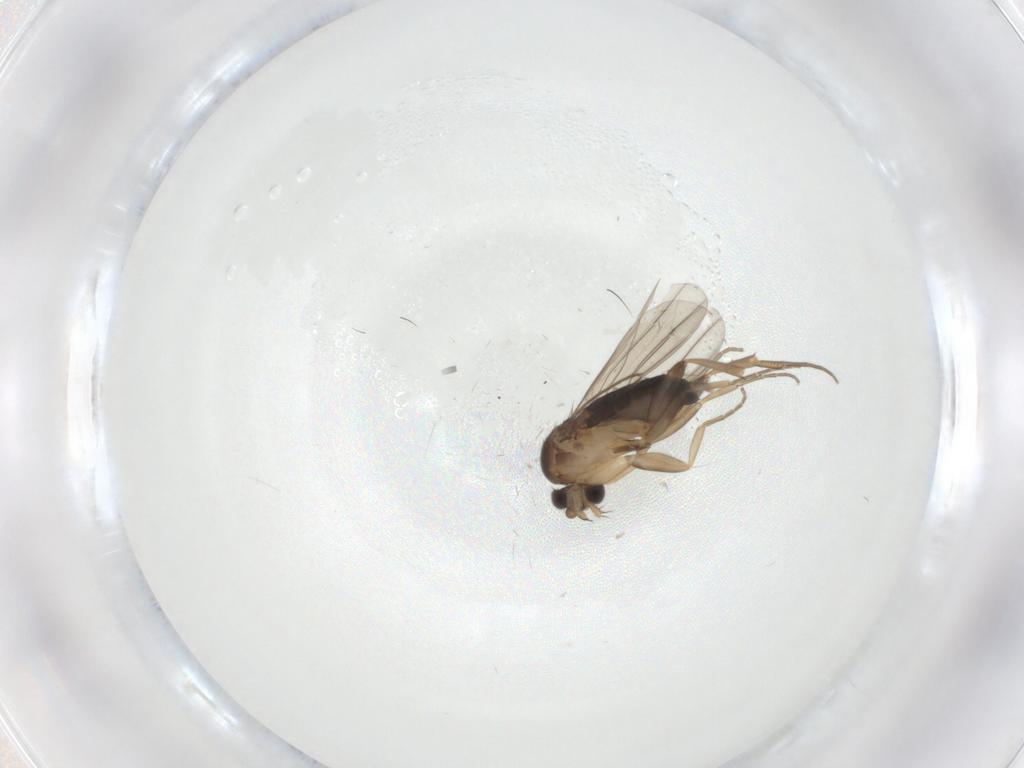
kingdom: Animalia
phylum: Arthropoda
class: Insecta
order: Diptera
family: Phoridae
